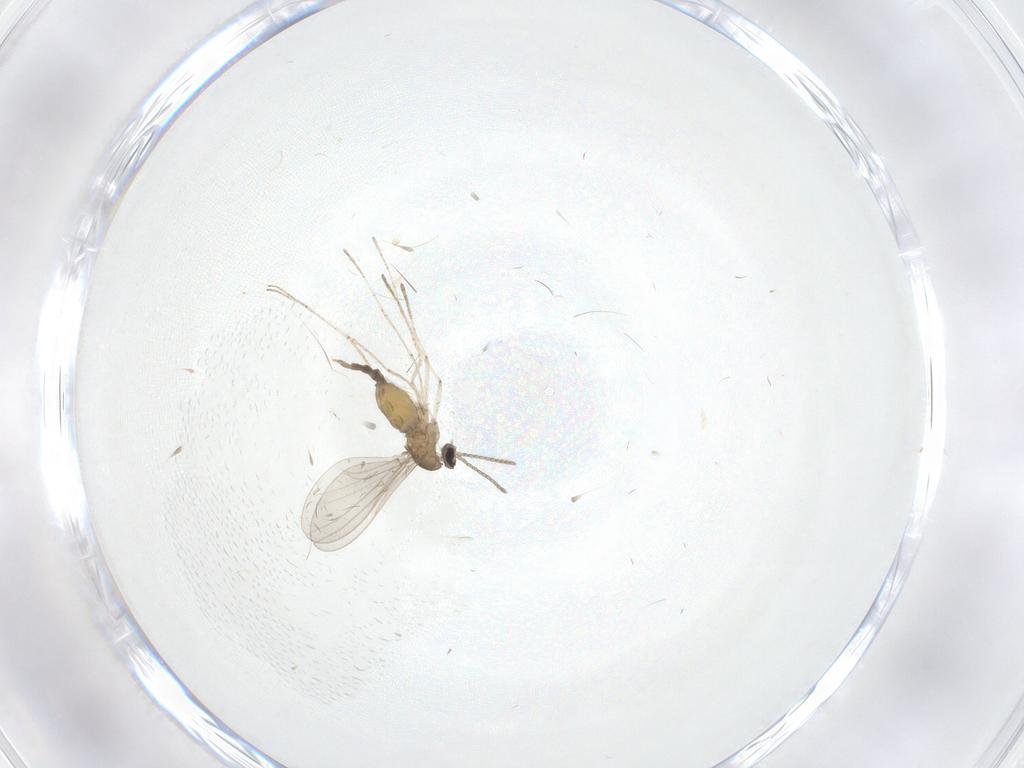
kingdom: Animalia
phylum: Arthropoda
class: Insecta
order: Diptera
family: Cecidomyiidae
